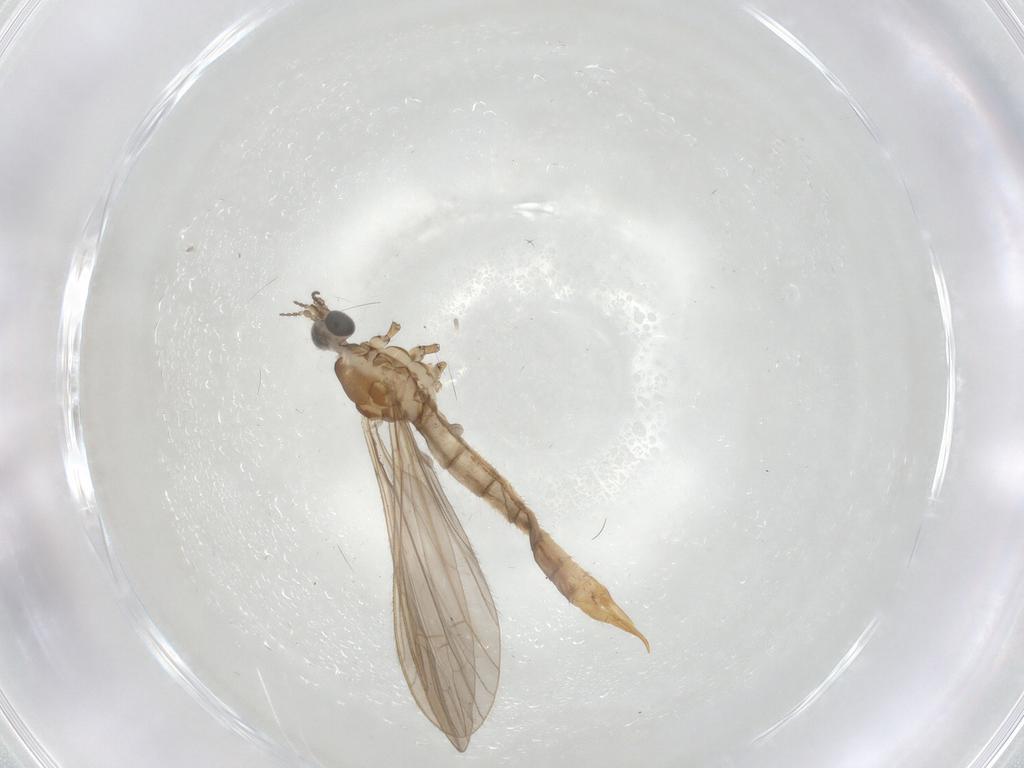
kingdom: Animalia
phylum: Arthropoda
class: Insecta
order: Diptera
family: Limoniidae
